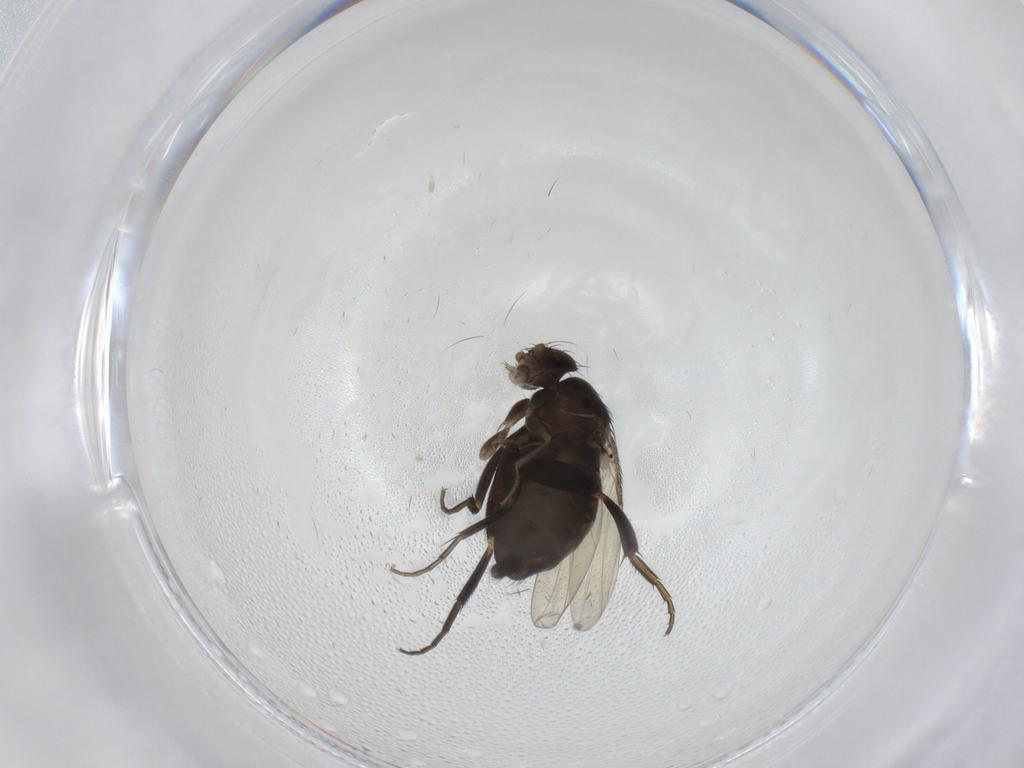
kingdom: Animalia
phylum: Arthropoda
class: Insecta
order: Diptera
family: Phoridae
